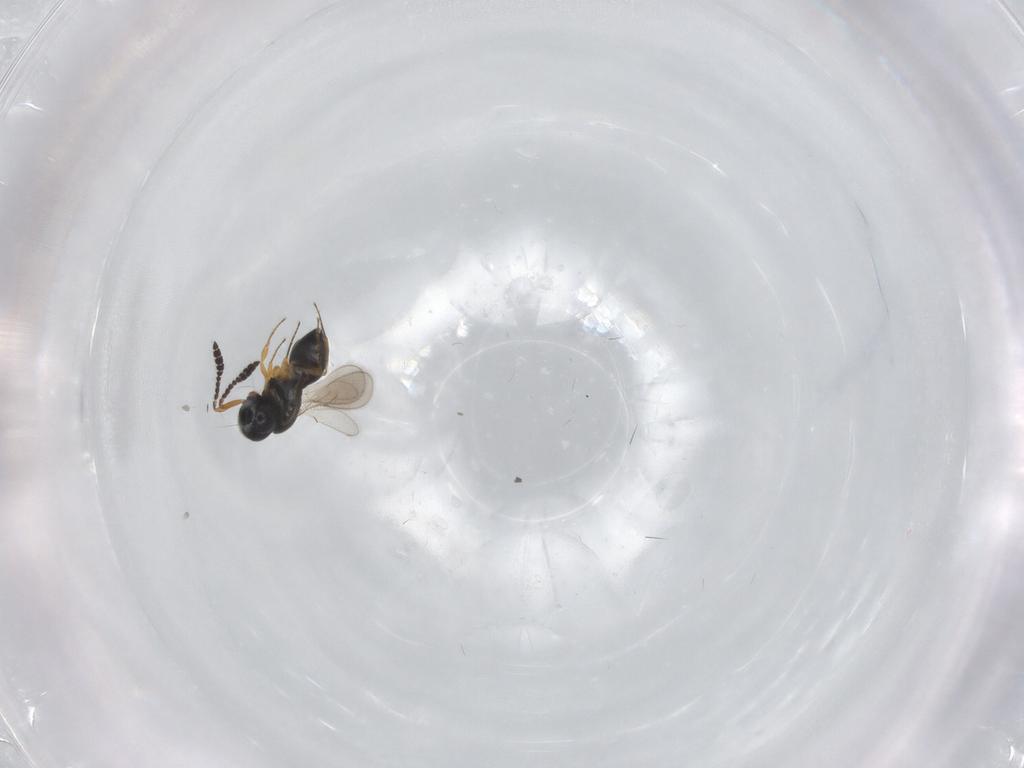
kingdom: Animalia
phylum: Arthropoda
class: Insecta
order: Hymenoptera
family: Scelionidae
